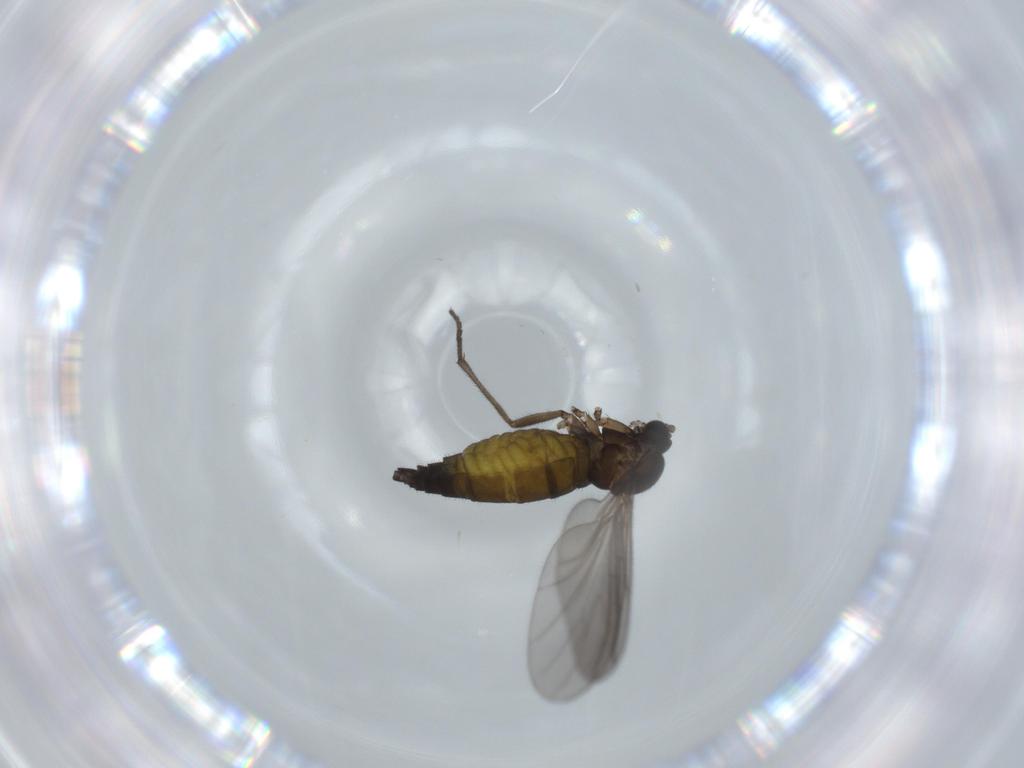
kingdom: Animalia
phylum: Arthropoda
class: Insecta
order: Diptera
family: Sciaridae
